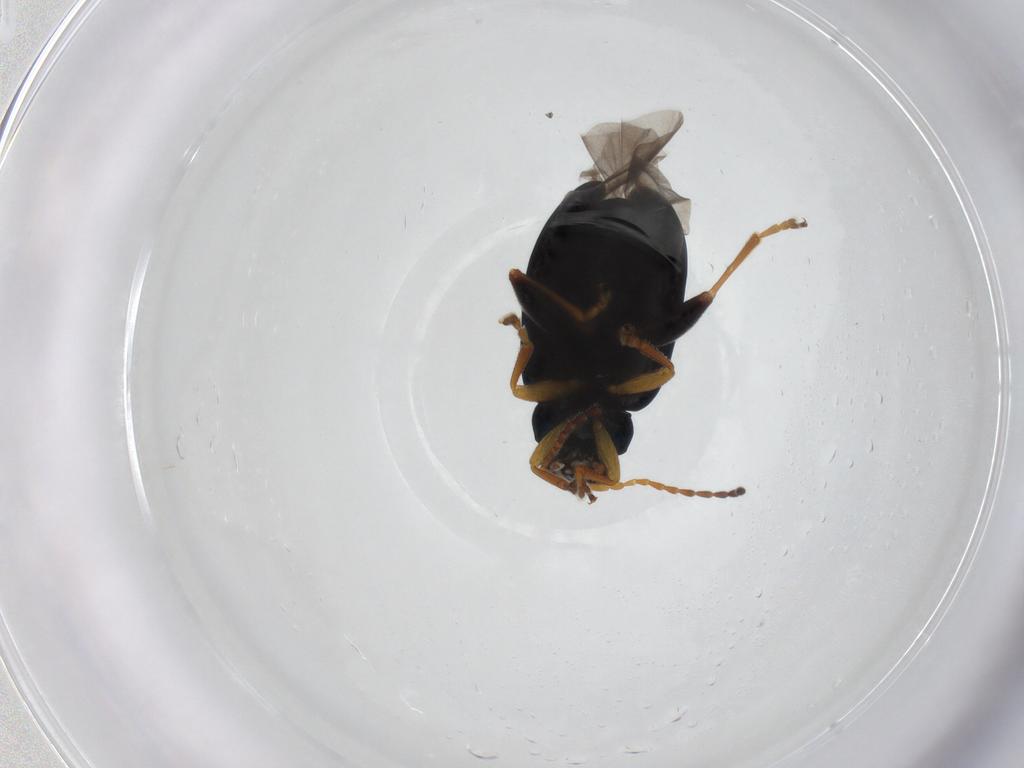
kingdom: Animalia
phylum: Arthropoda
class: Insecta
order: Coleoptera
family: Chrysomelidae
